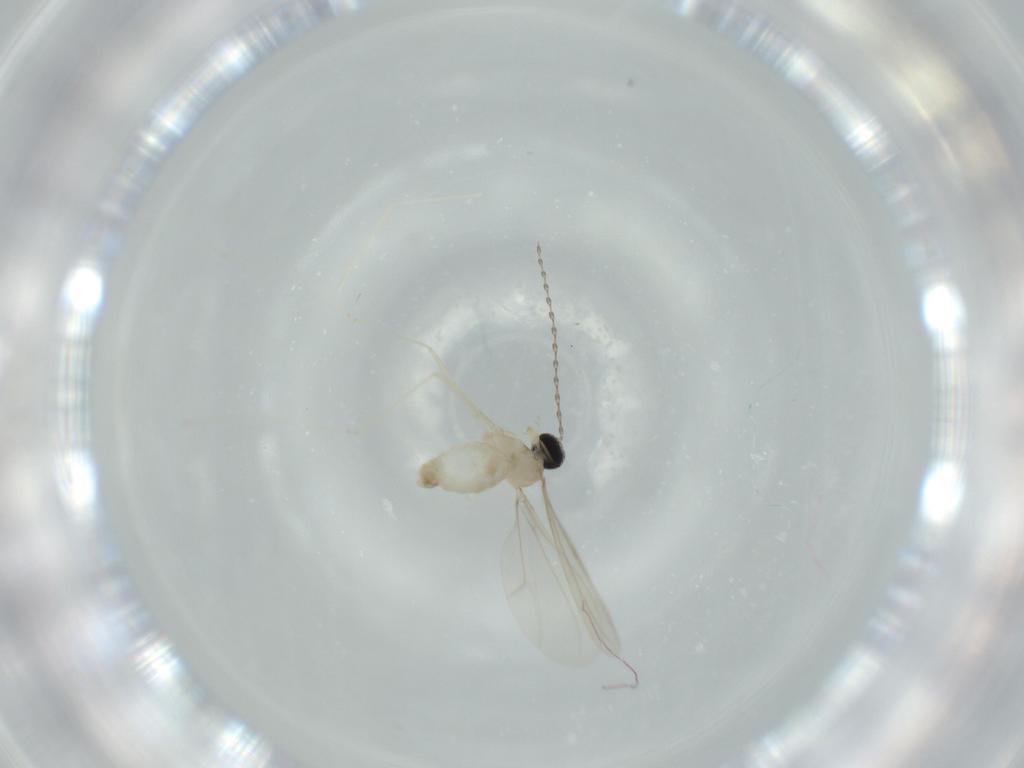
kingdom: Animalia
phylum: Arthropoda
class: Insecta
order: Diptera
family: Cecidomyiidae
